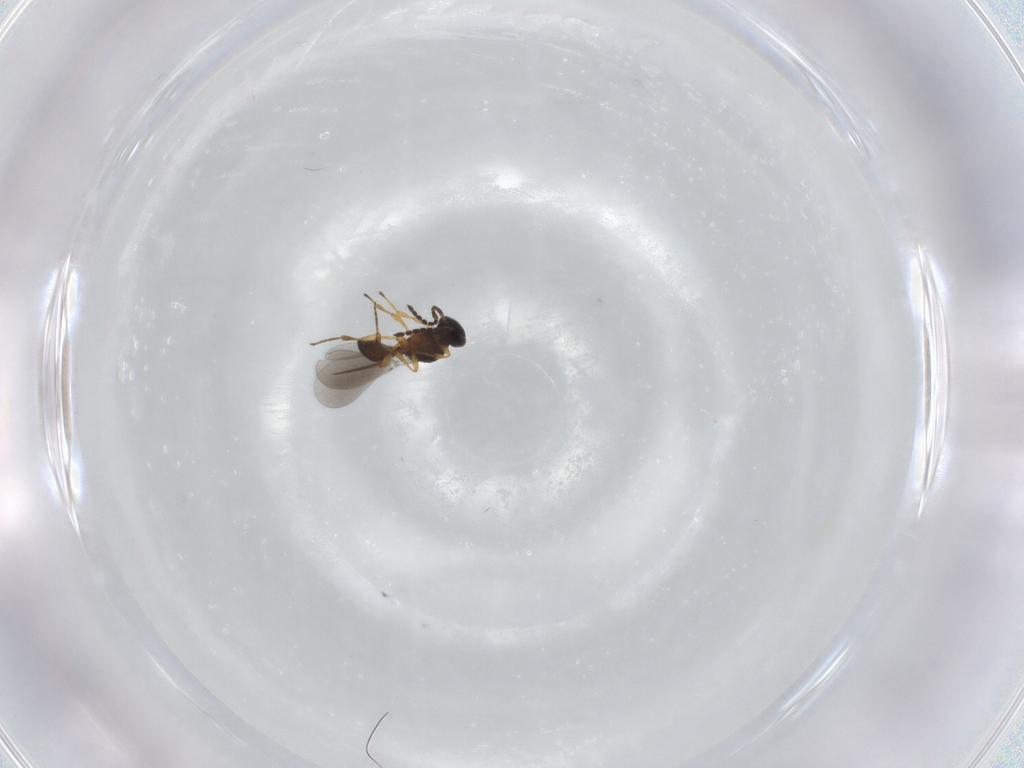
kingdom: Animalia
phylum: Arthropoda
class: Insecta
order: Hymenoptera
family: Platygastridae
